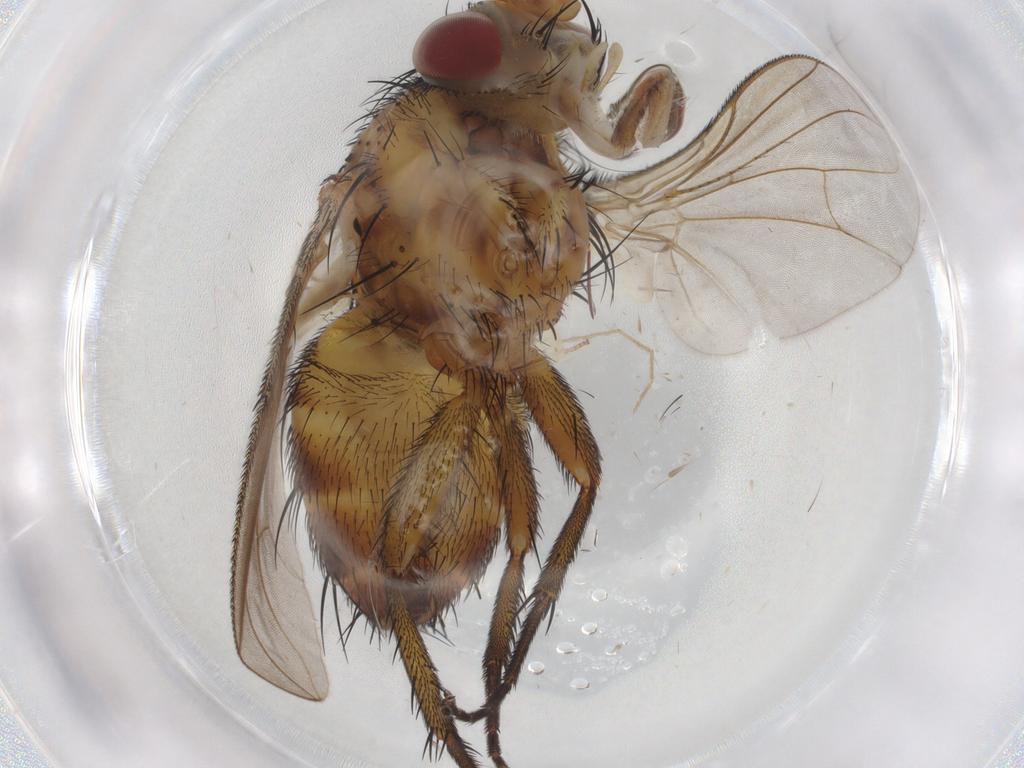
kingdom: Animalia
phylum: Arthropoda
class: Insecta
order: Diptera
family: Tachinidae
